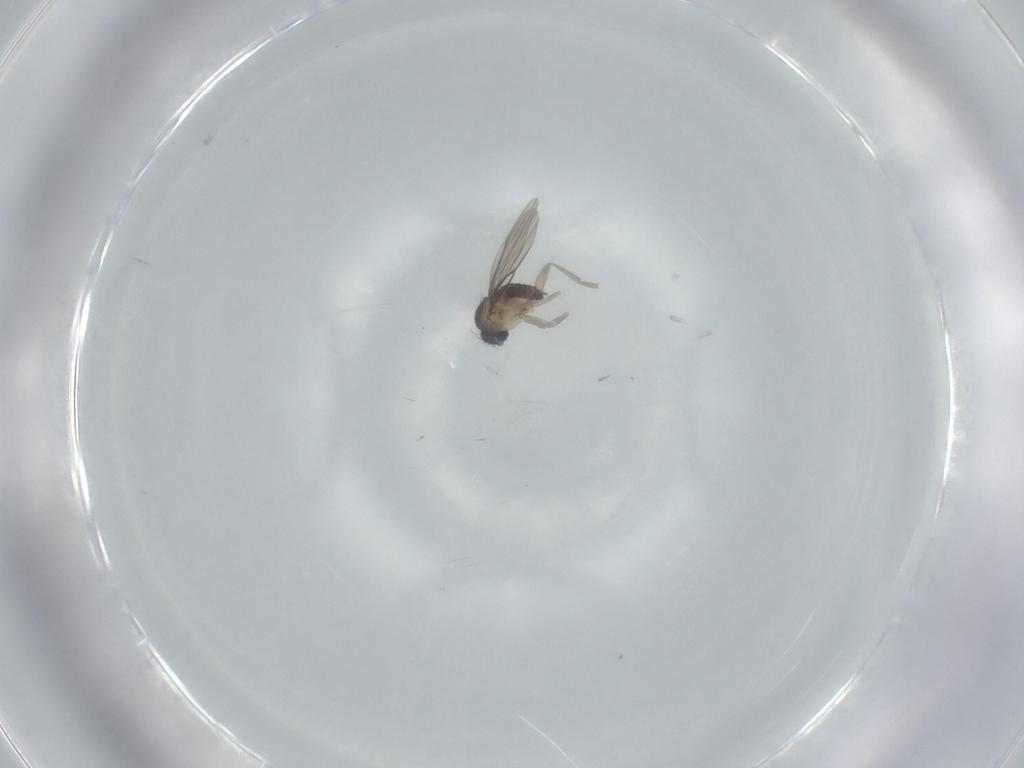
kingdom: Animalia
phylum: Arthropoda
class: Insecta
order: Diptera
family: Phoridae
